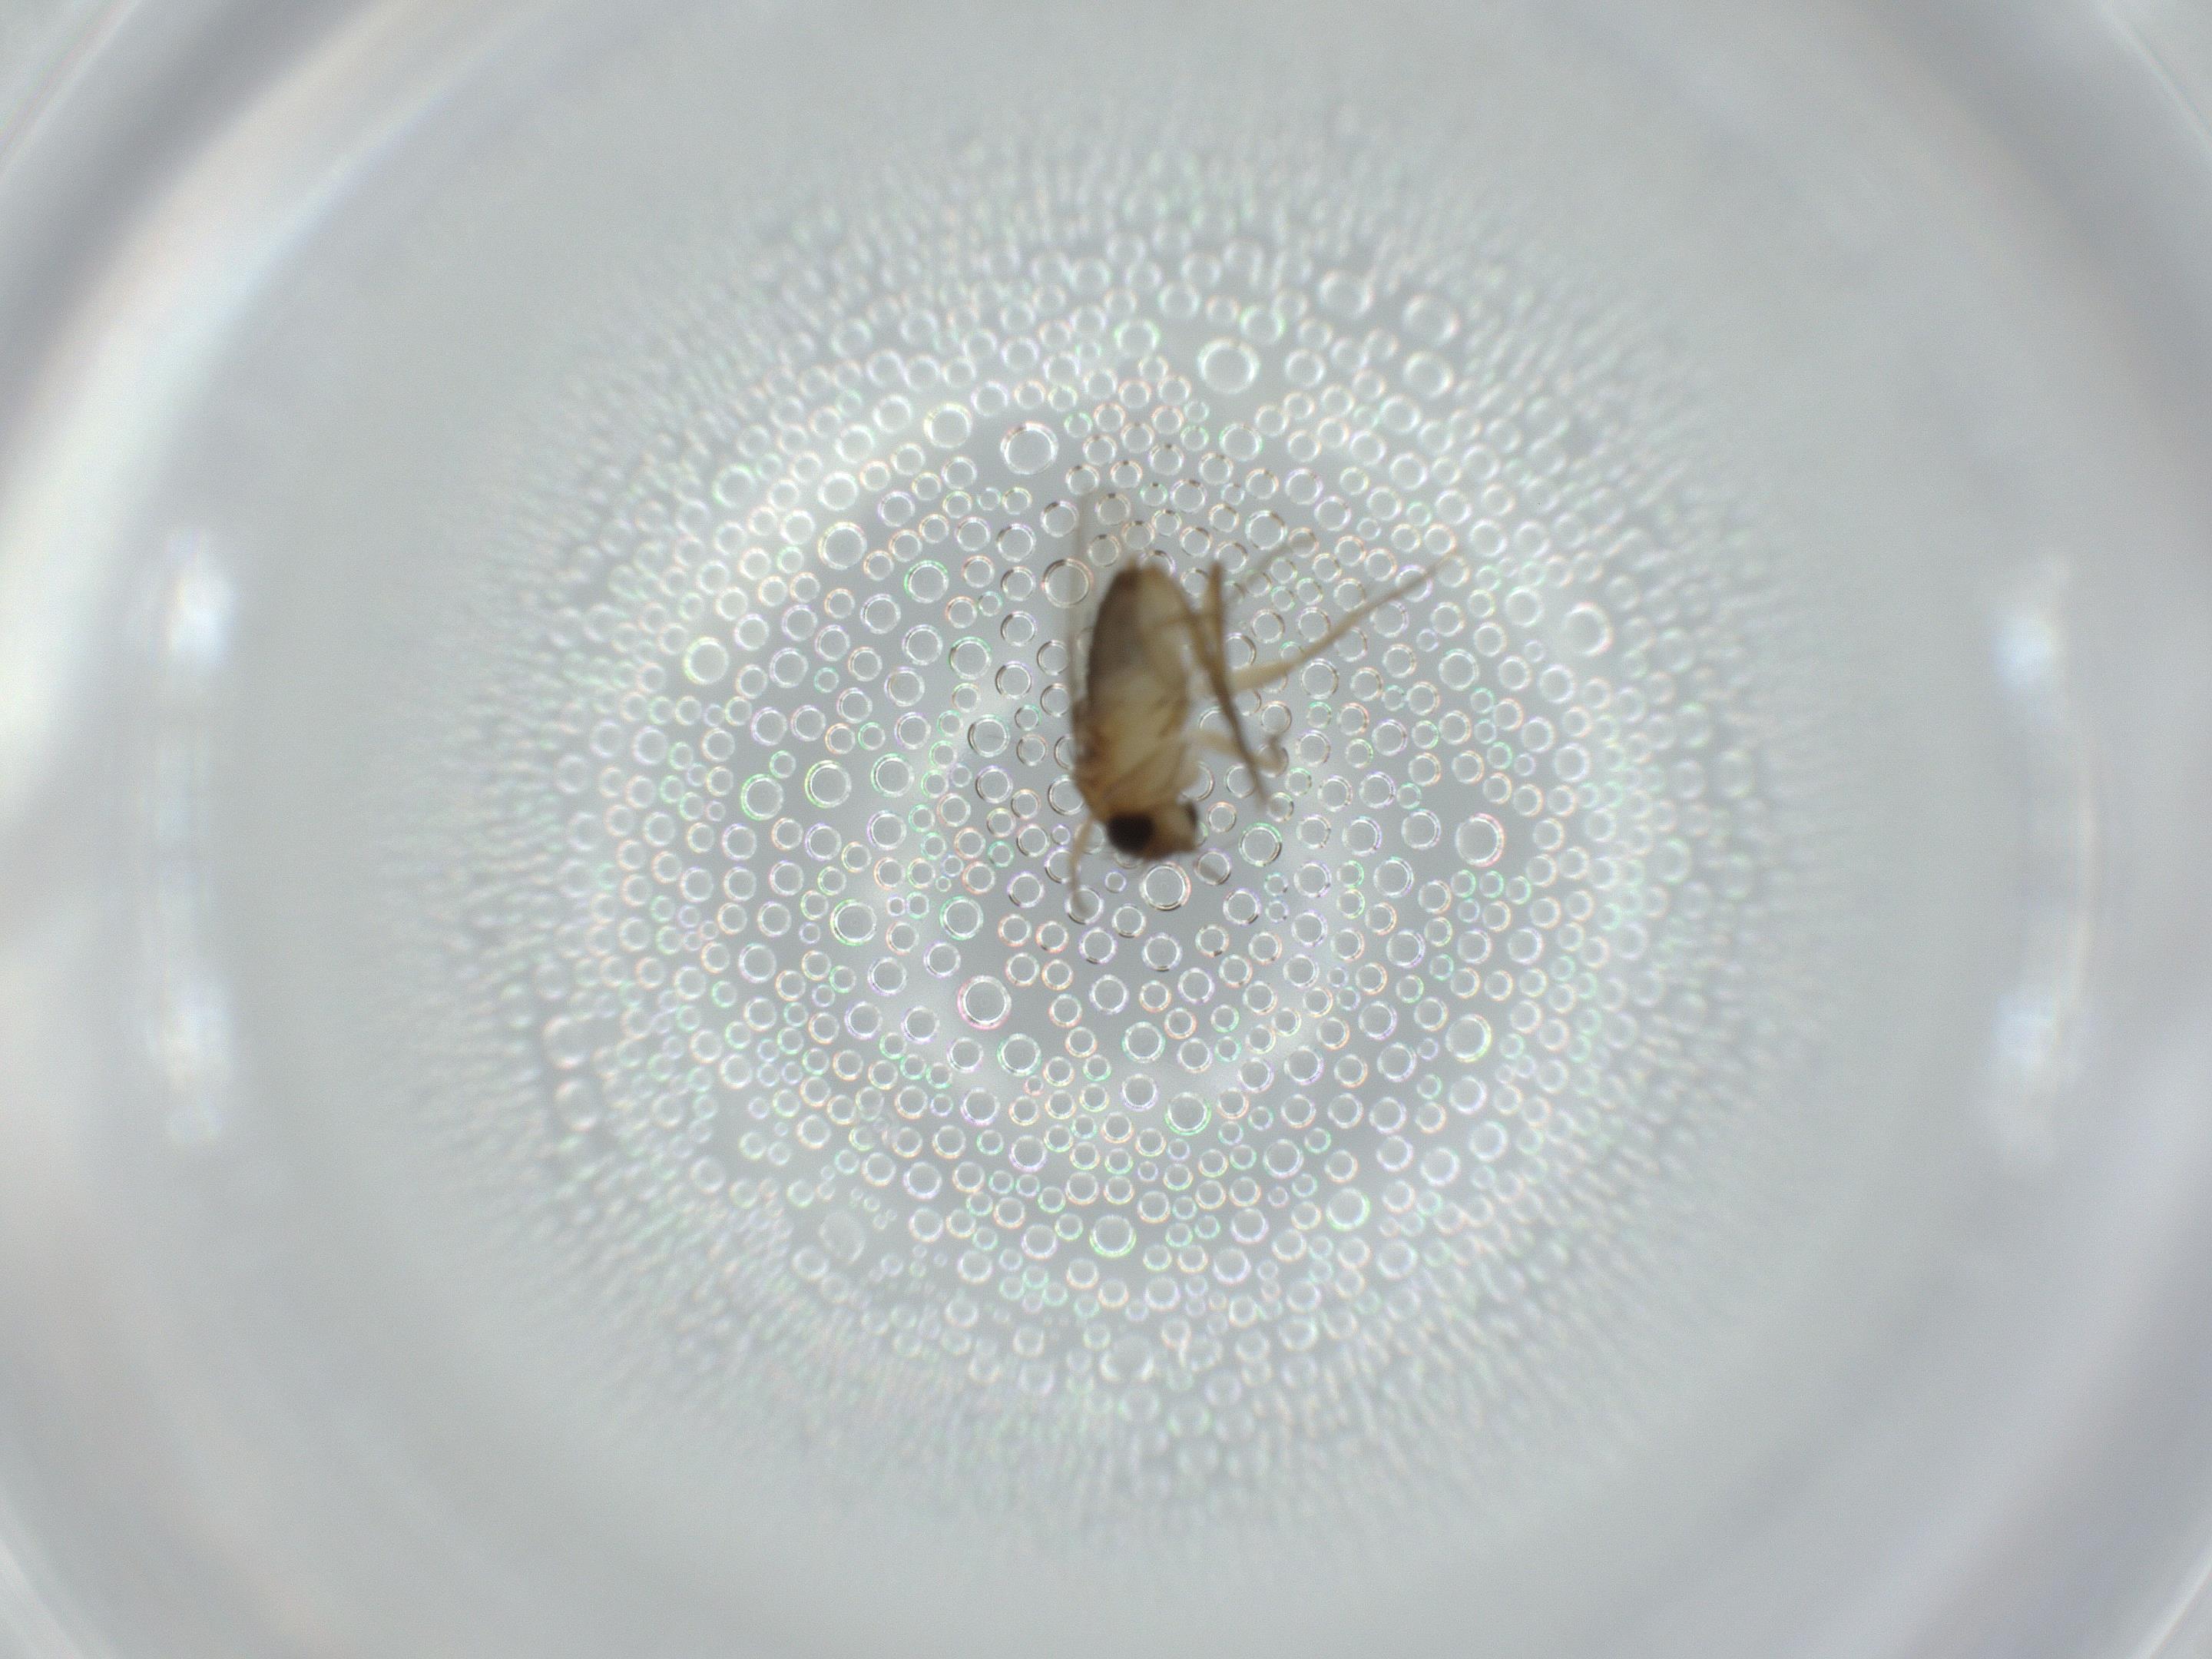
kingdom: Animalia
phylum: Arthropoda
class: Insecta
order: Diptera
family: Phoridae
